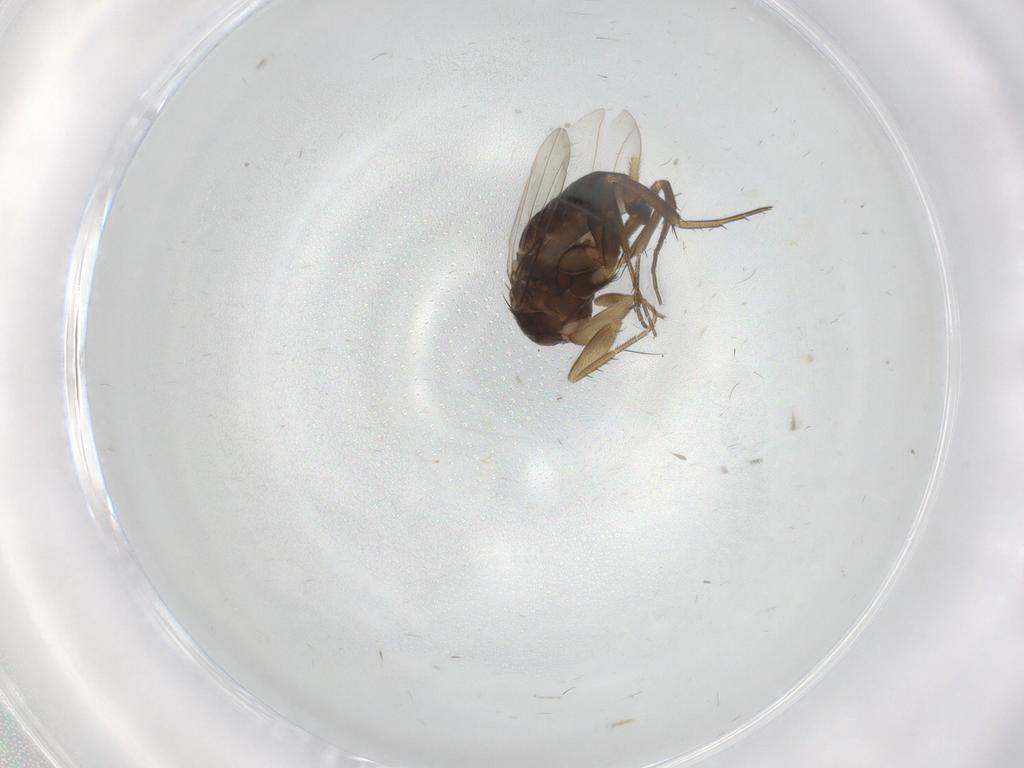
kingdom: Animalia
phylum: Arthropoda
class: Insecta
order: Diptera
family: Phoridae
